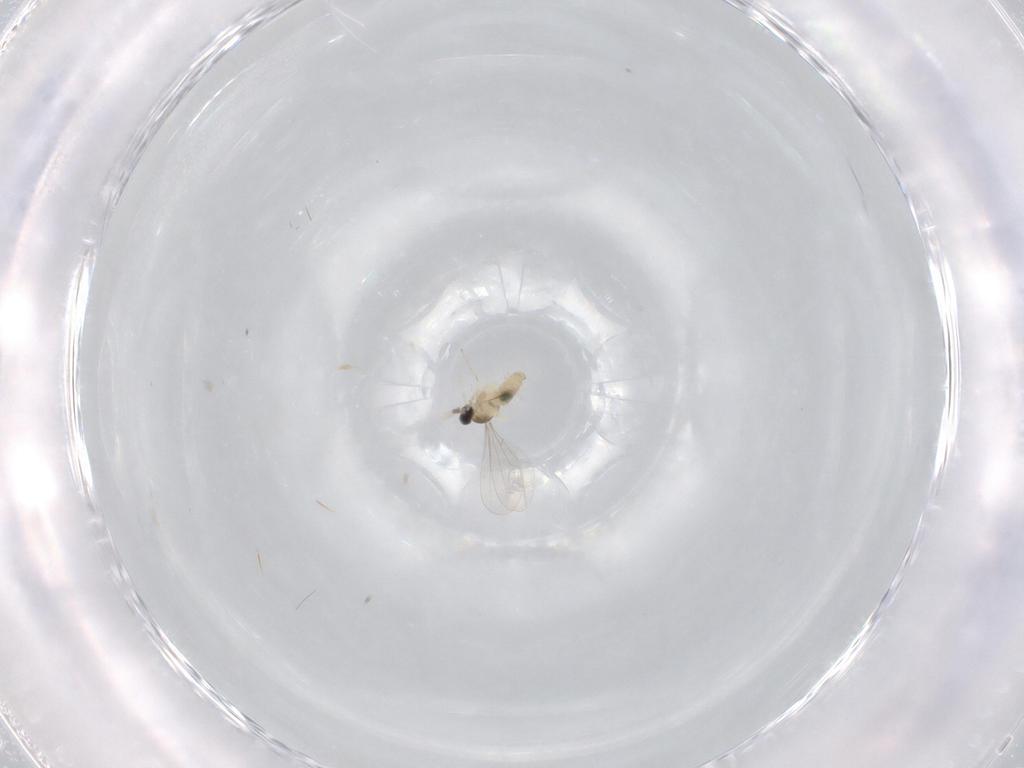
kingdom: Animalia
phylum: Arthropoda
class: Insecta
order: Diptera
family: Cecidomyiidae
